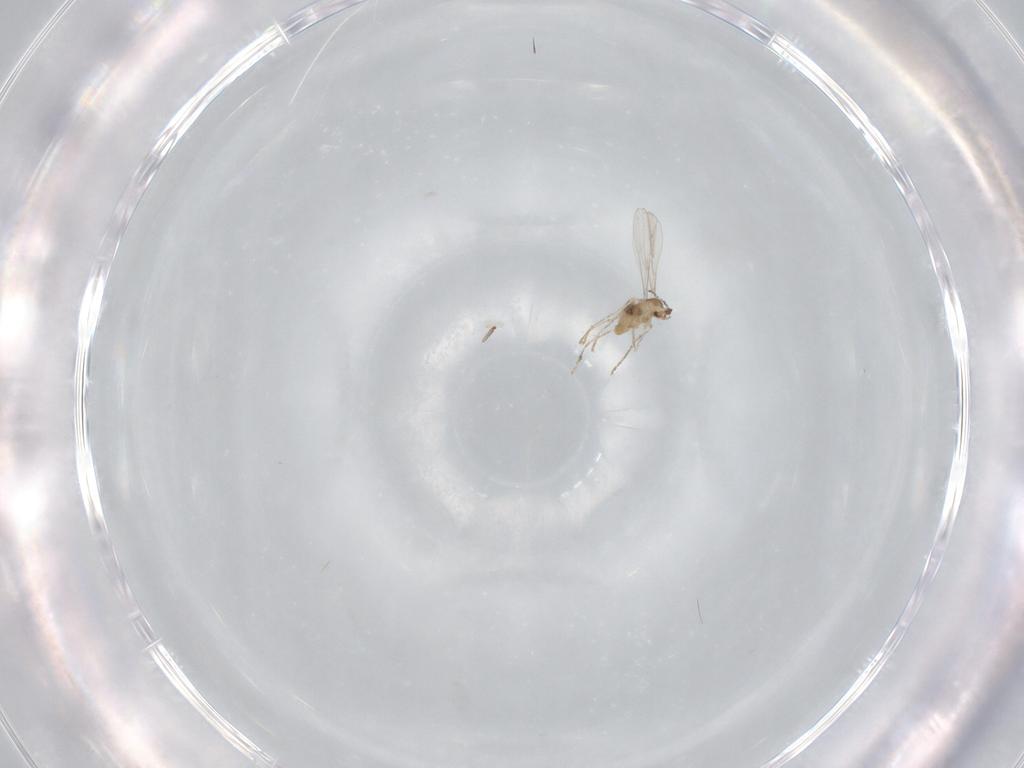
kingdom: Animalia
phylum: Arthropoda
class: Insecta
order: Diptera
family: Cecidomyiidae
